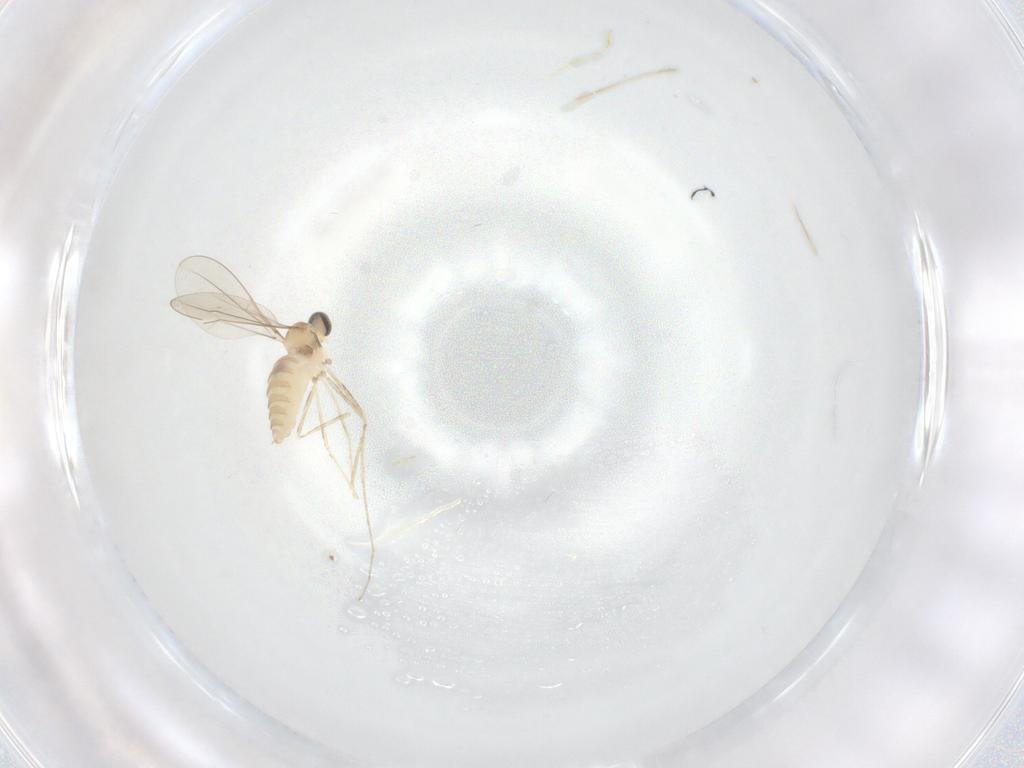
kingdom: Animalia
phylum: Arthropoda
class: Insecta
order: Diptera
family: Cecidomyiidae
